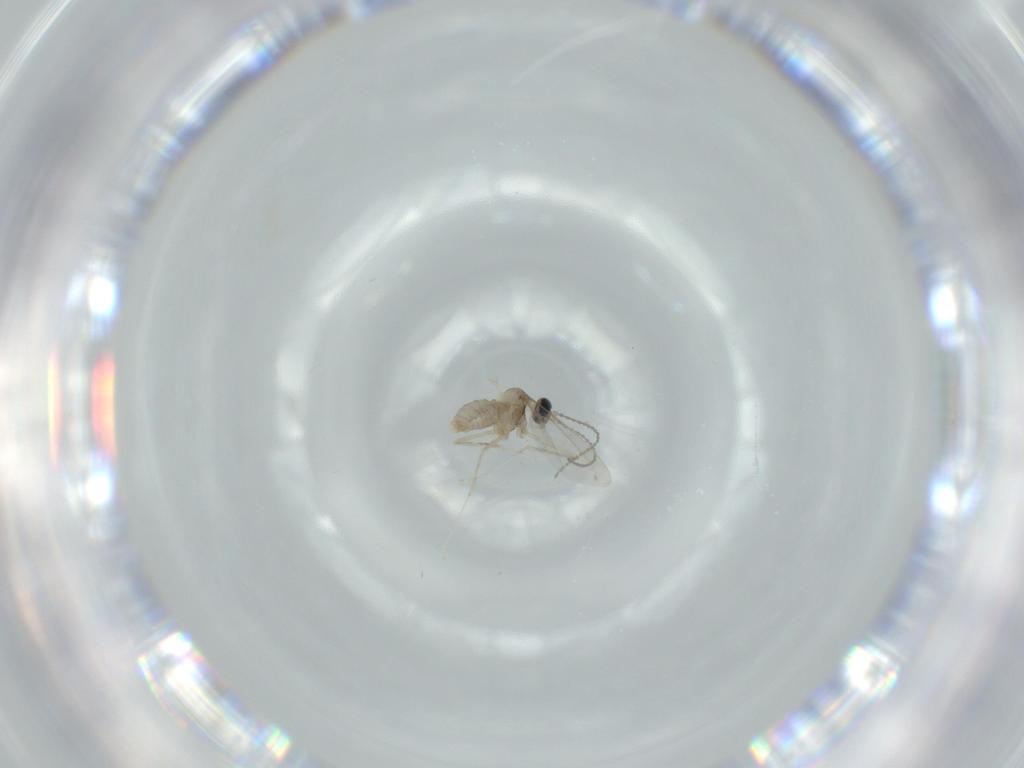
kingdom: Animalia
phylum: Arthropoda
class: Insecta
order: Diptera
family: Cecidomyiidae
